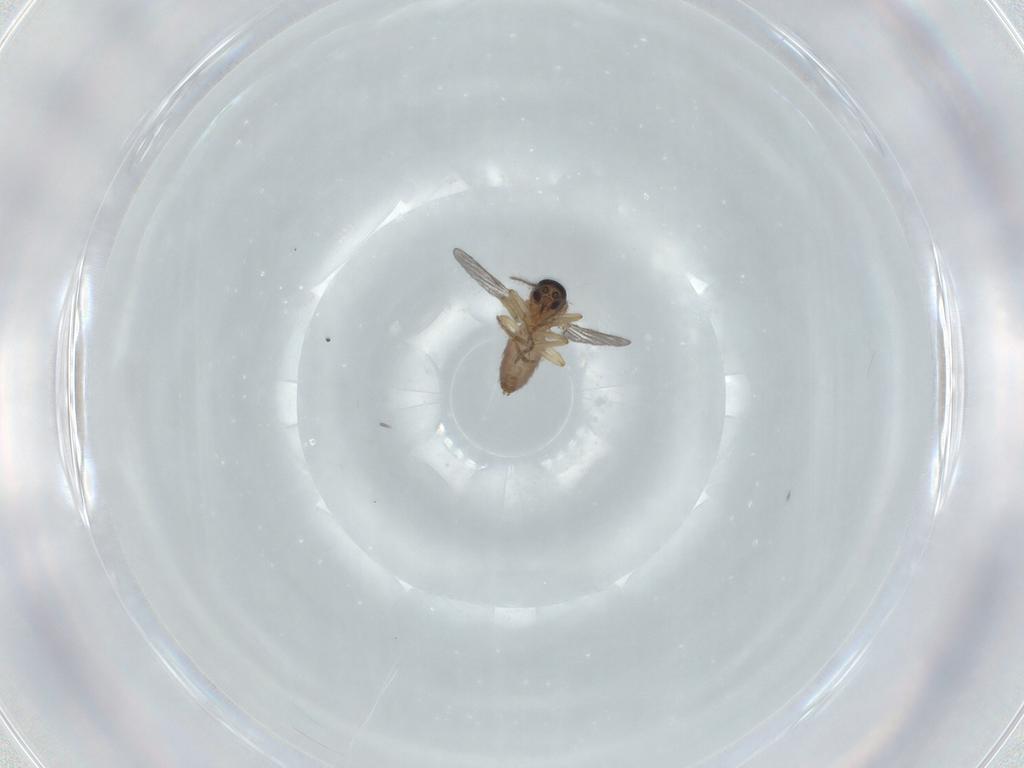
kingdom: Animalia
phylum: Arthropoda
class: Insecta
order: Diptera
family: Ceratopogonidae
